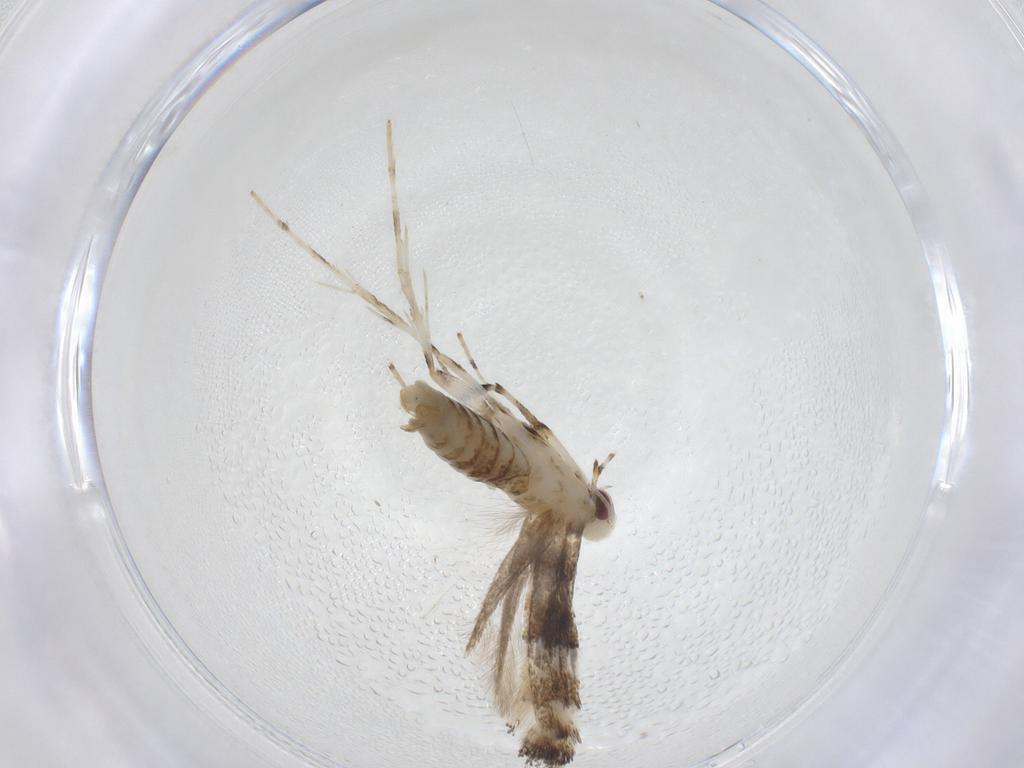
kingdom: Animalia
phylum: Arthropoda
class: Insecta
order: Lepidoptera
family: Gracillariidae
